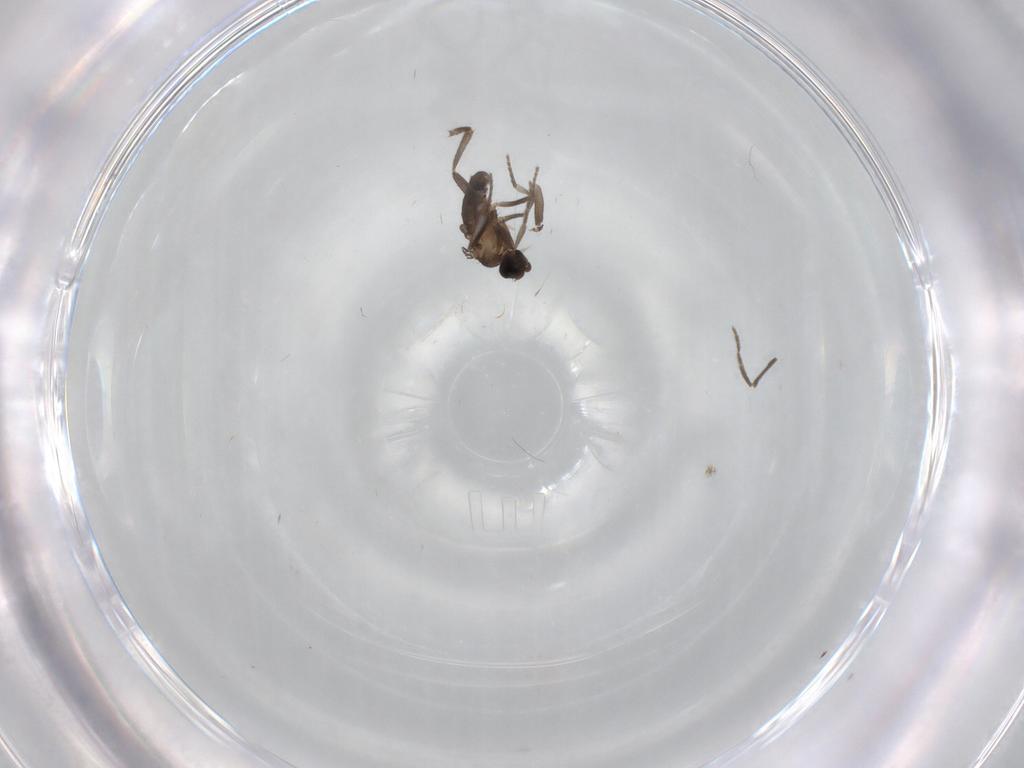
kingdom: Animalia
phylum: Arthropoda
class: Insecta
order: Diptera
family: Phoridae
